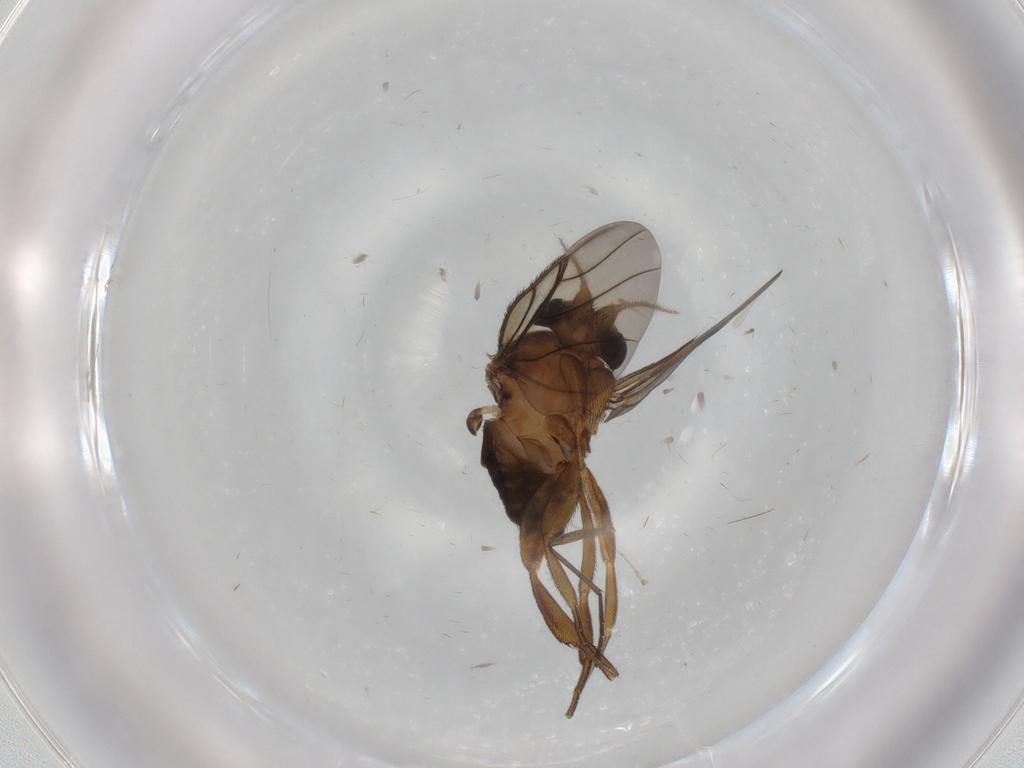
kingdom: Animalia
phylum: Arthropoda
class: Insecta
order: Diptera
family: Chironomidae
